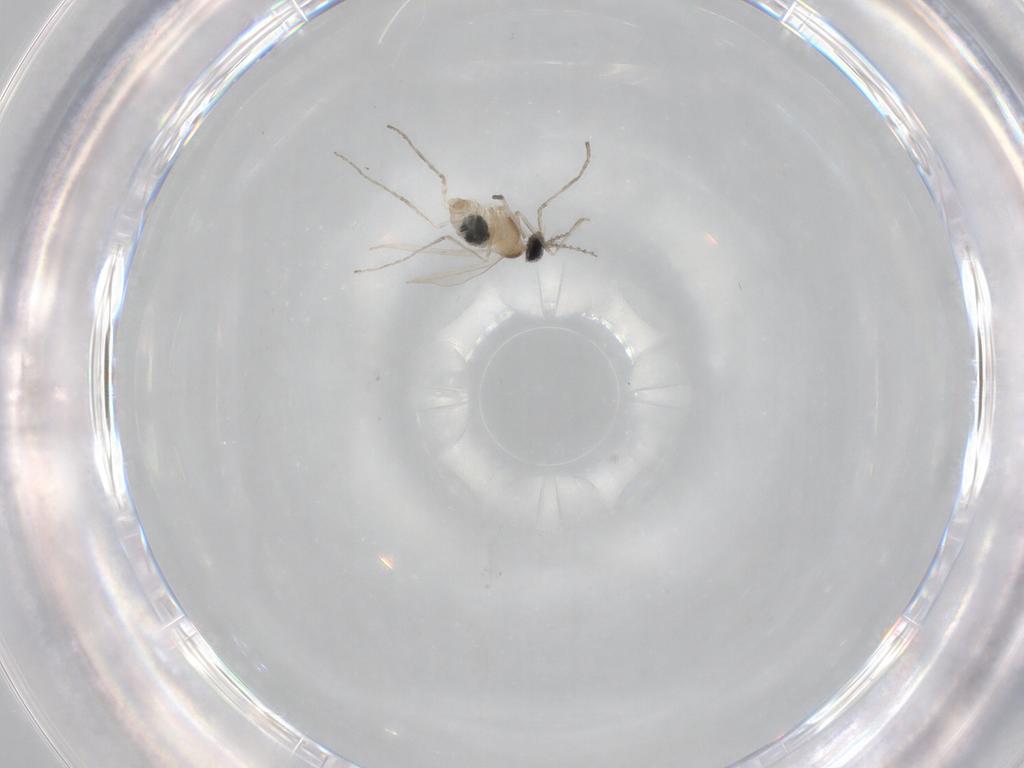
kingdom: Animalia
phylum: Arthropoda
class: Insecta
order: Diptera
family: Cecidomyiidae
